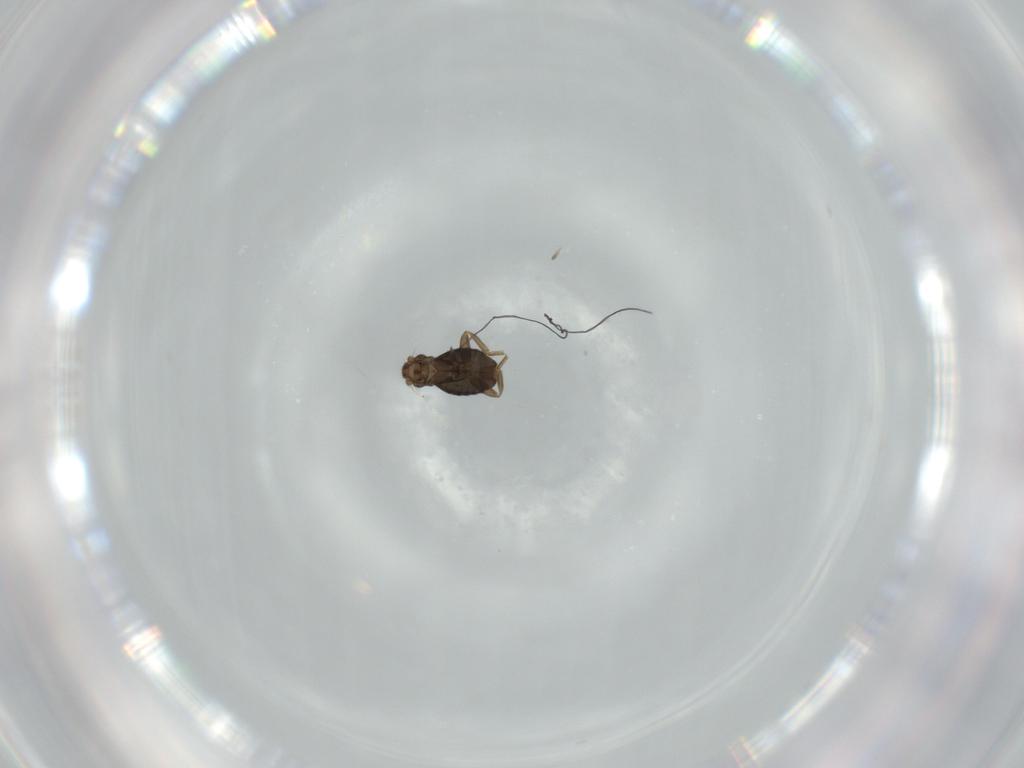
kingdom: Animalia
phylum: Arthropoda
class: Insecta
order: Diptera
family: Phoridae
